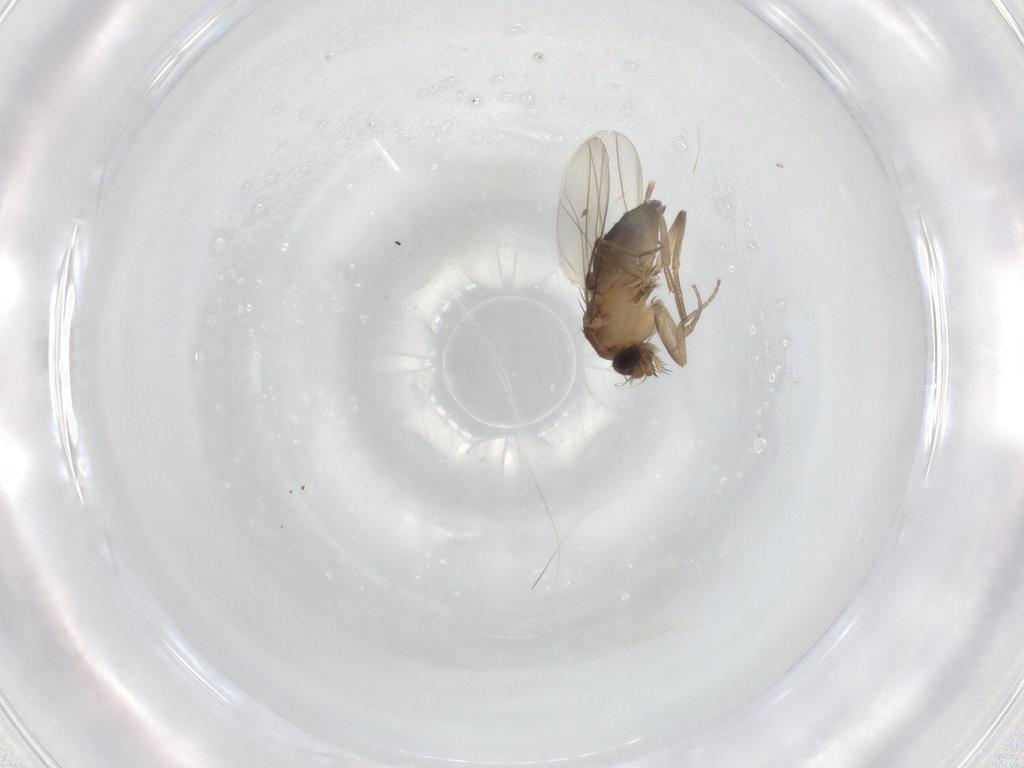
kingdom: Animalia
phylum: Arthropoda
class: Insecta
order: Diptera
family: Phoridae
